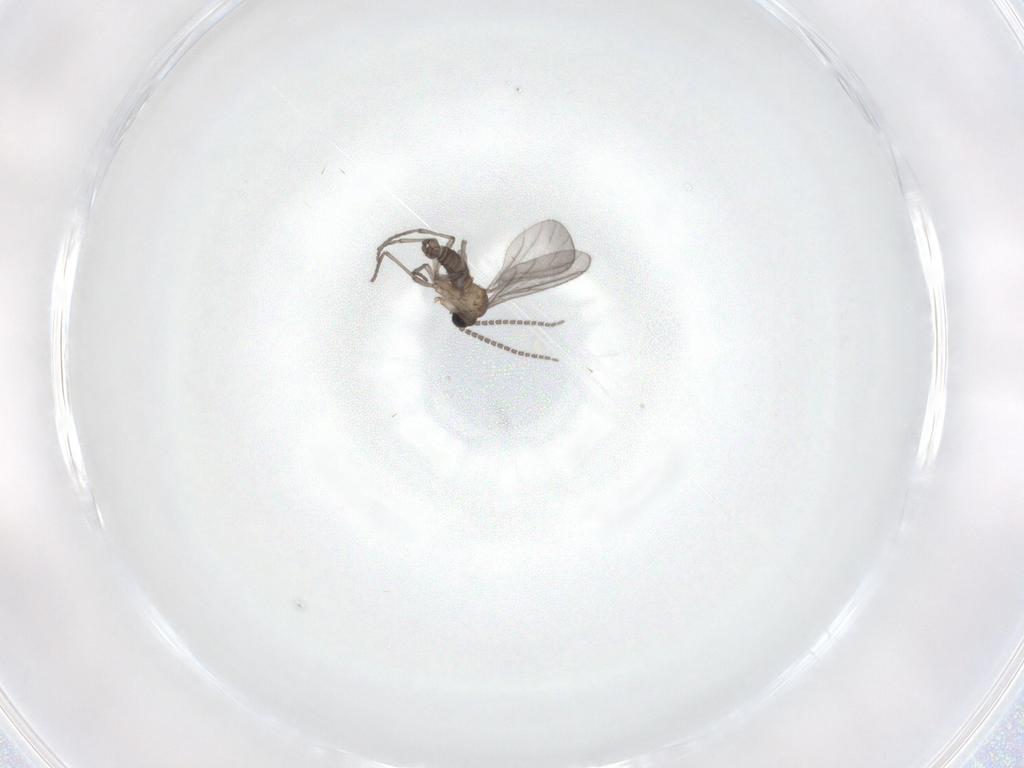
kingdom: Animalia
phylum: Arthropoda
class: Insecta
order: Diptera
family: Sciaridae
